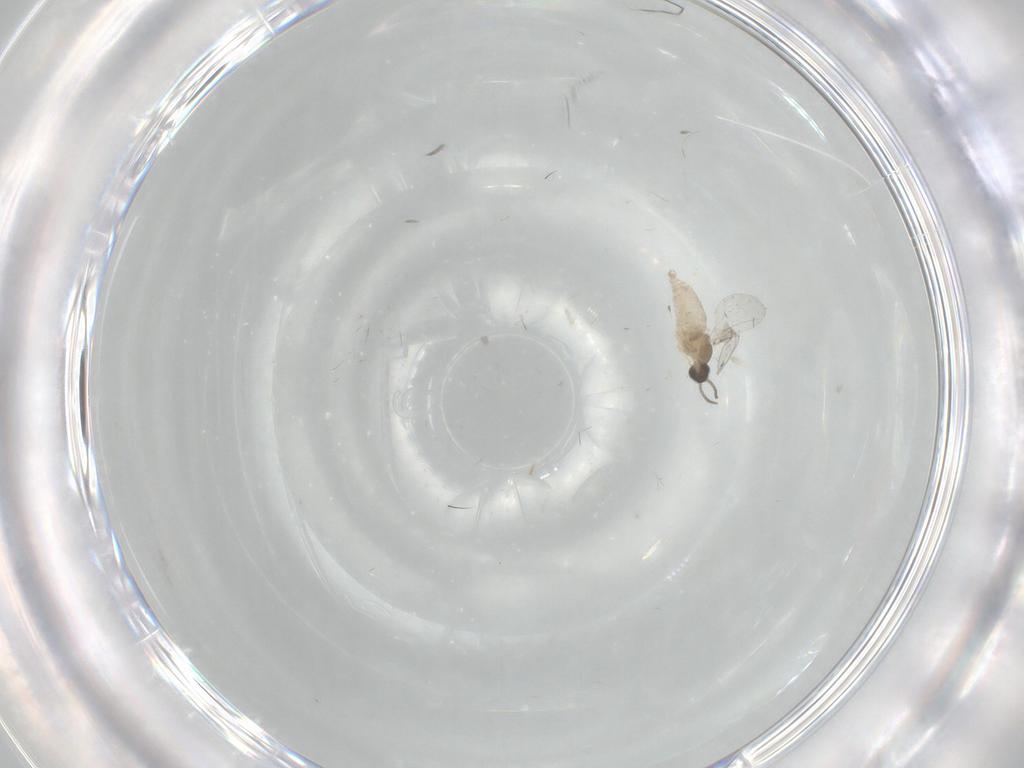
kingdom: Animalia
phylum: Arthropoda
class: Insecta
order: Diptera
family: Cecidomyiidae
